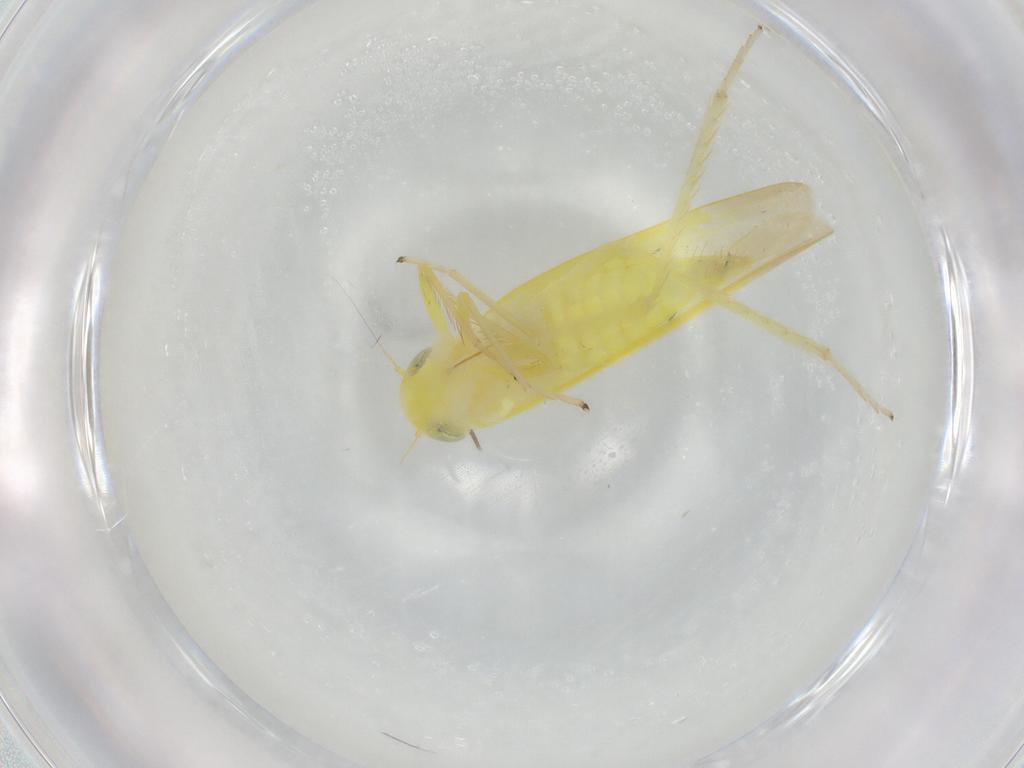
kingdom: Animalia
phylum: Arthropoda
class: Insecta
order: Hemiptera
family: Cicadellidae
